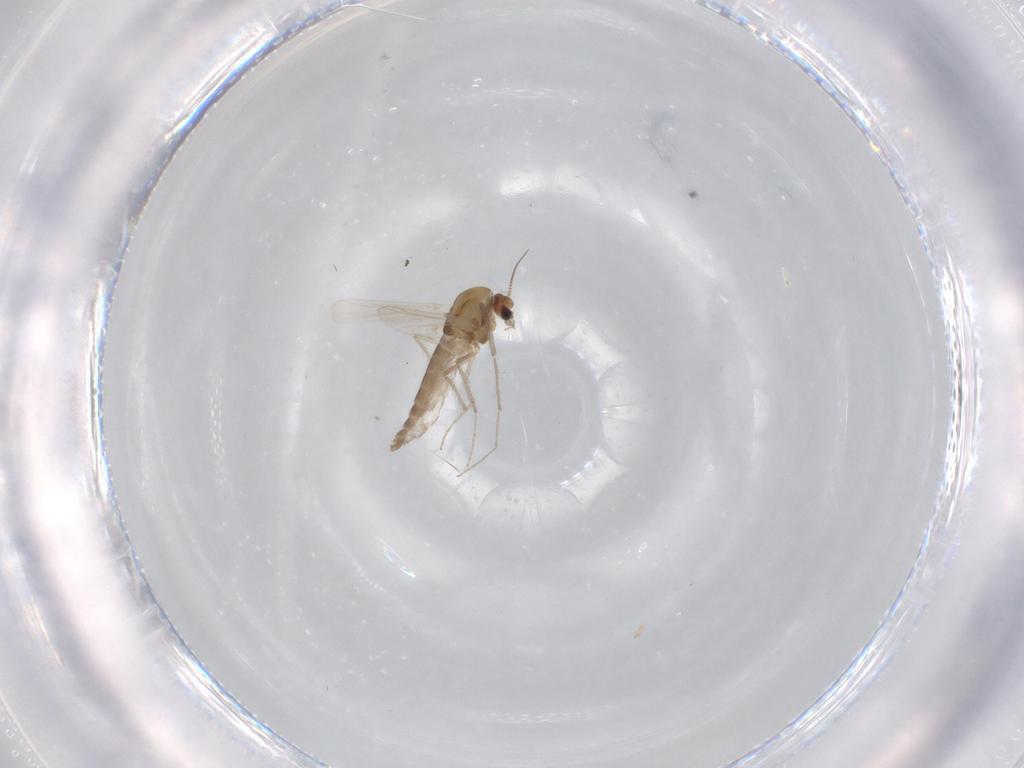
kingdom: Animalia
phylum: Arthropoda
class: Insecta
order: Diptera
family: Chironomidae
